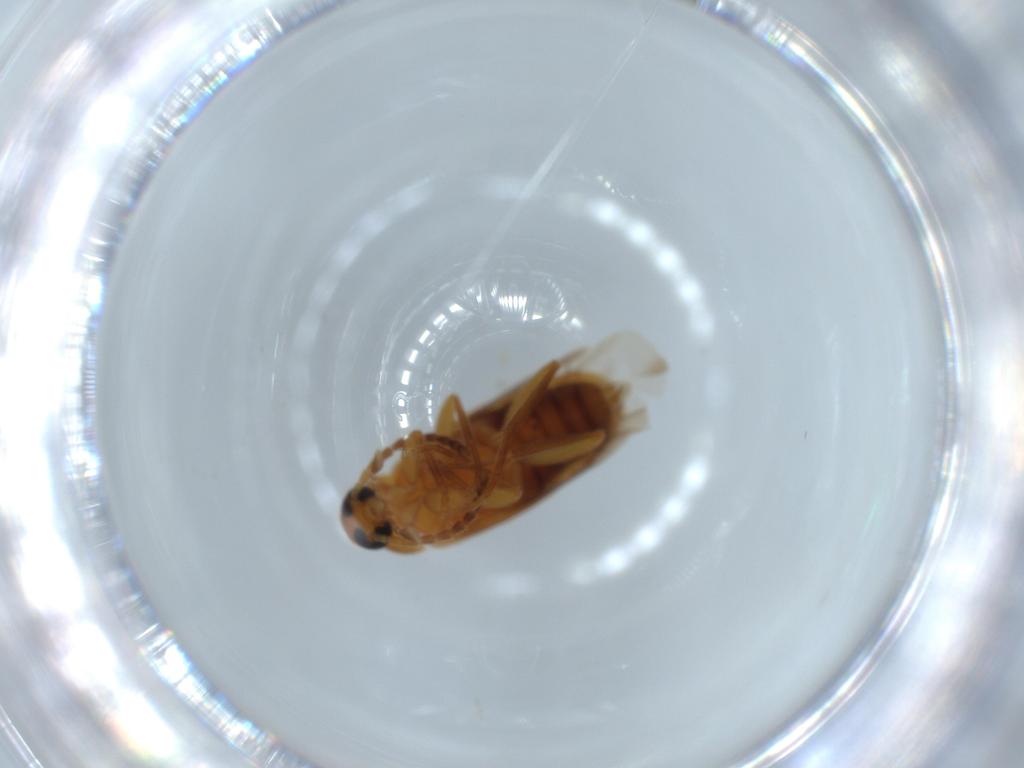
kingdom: Animalia
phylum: Arthropoda
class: Insecta
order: Coleoptera
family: Scraptiidae
